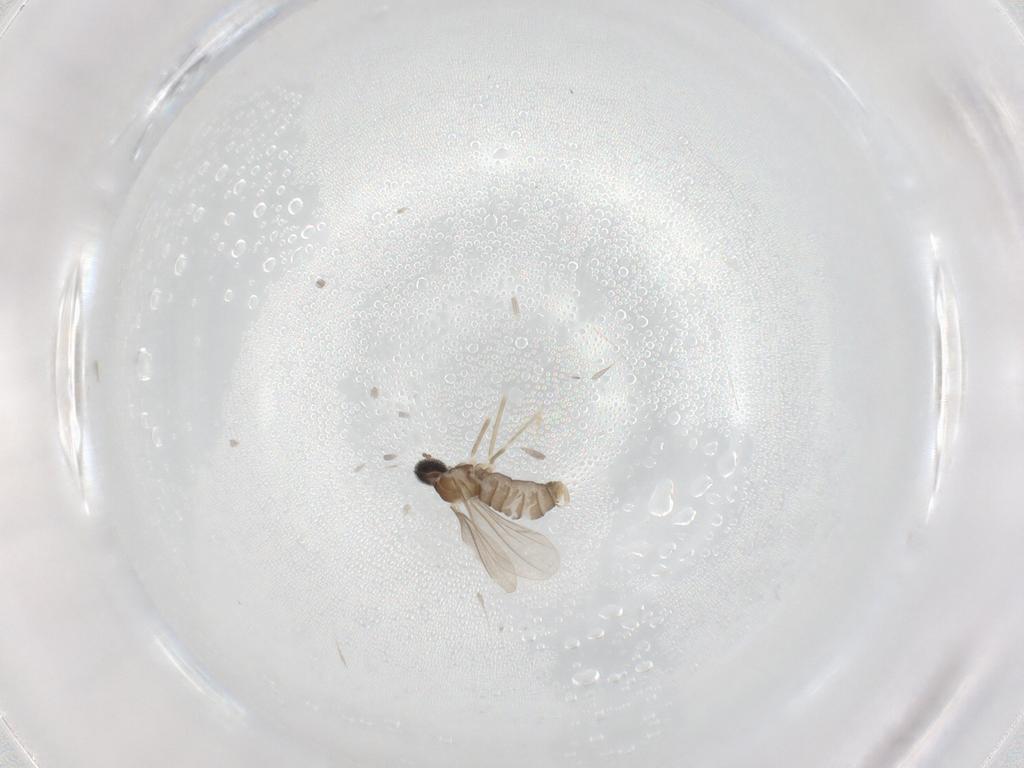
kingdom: Animalia
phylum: Arthropoda
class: Insecta
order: Diptera
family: Cecidomyiidae
